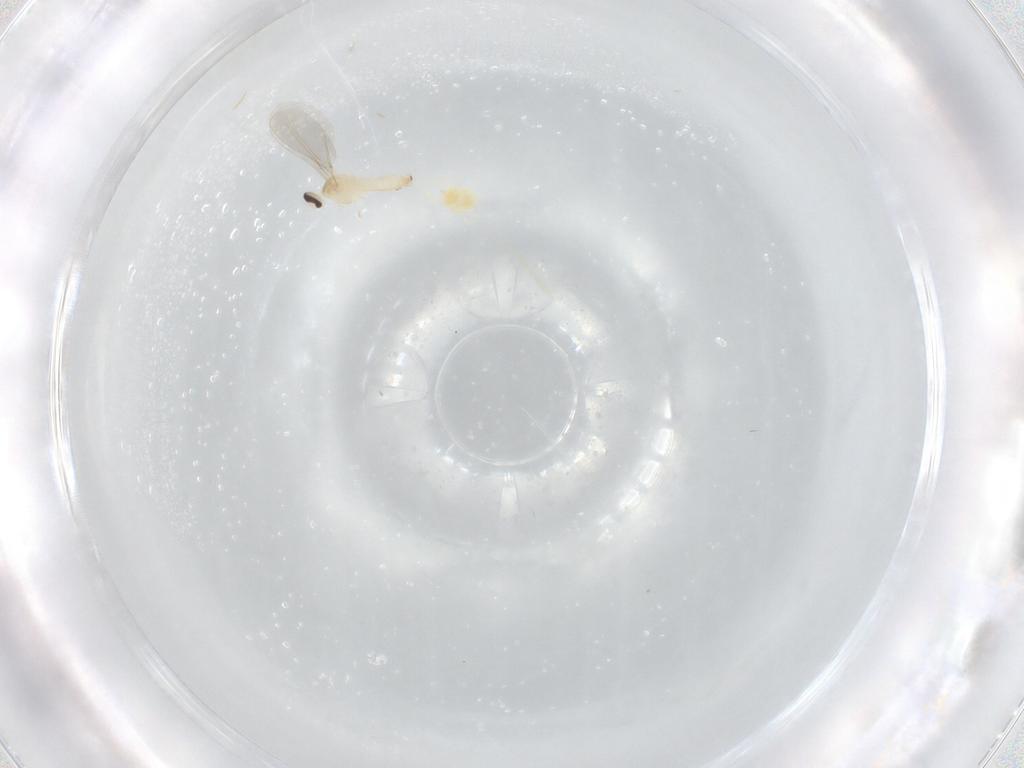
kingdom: Animalia
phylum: Arthropoda
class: Insecta
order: Diptera
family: Cecidomyiidae
